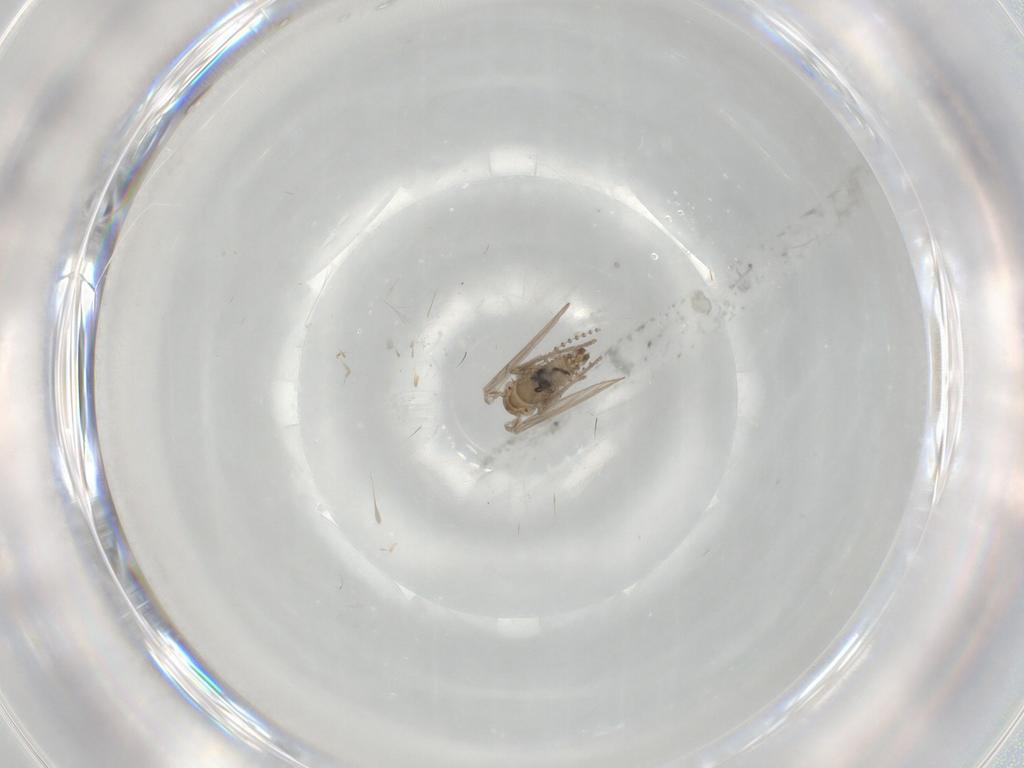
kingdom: Animalia
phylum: Arthropoda
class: Insecta
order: Diptera
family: Psychodidae
